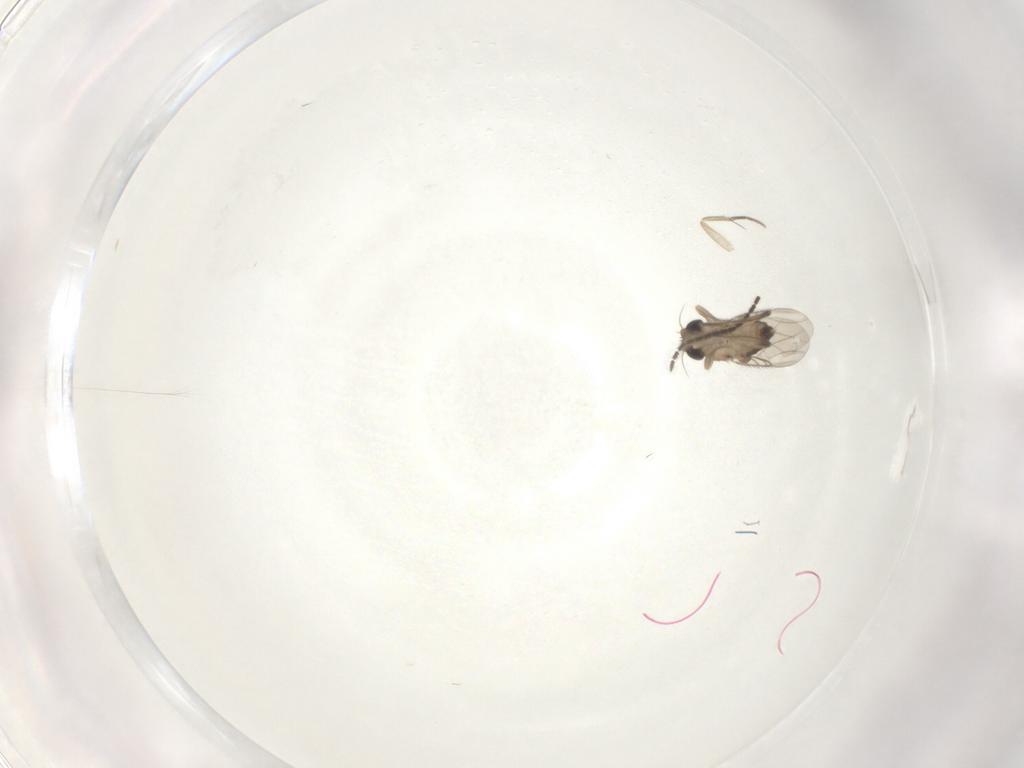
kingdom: Animalia
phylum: Arthropoda
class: Insecta
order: Diptera
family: Phoridae
